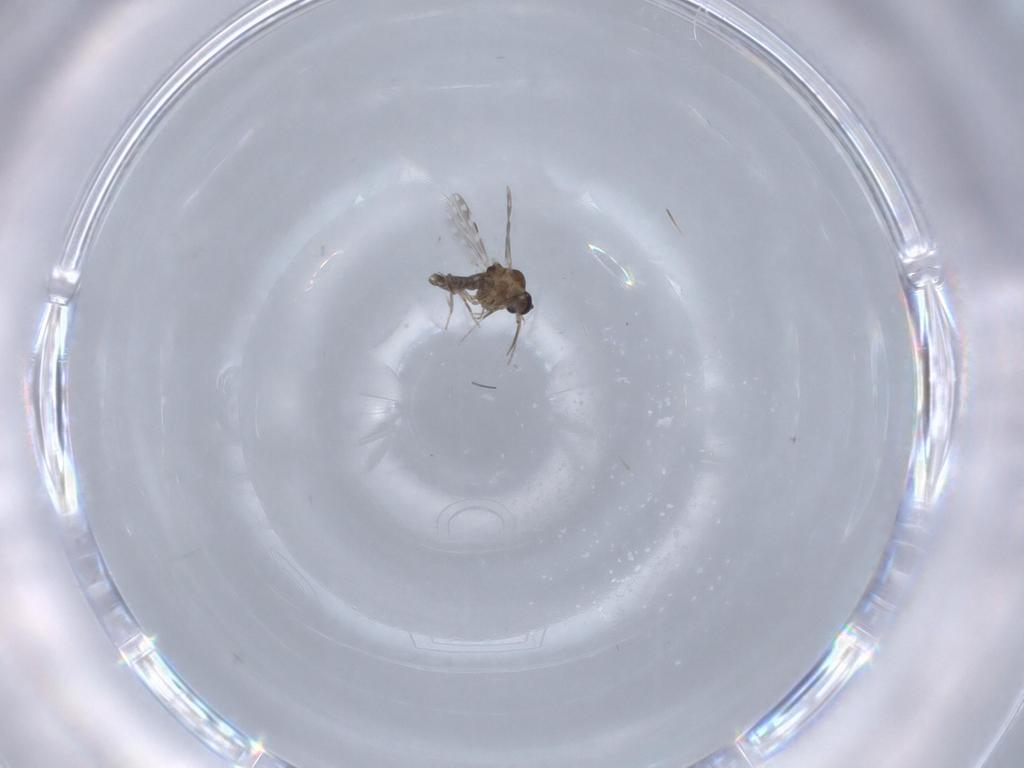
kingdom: Animalia
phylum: Arthropoda
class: Insecta
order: Diptera
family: Ceratopogonidae
